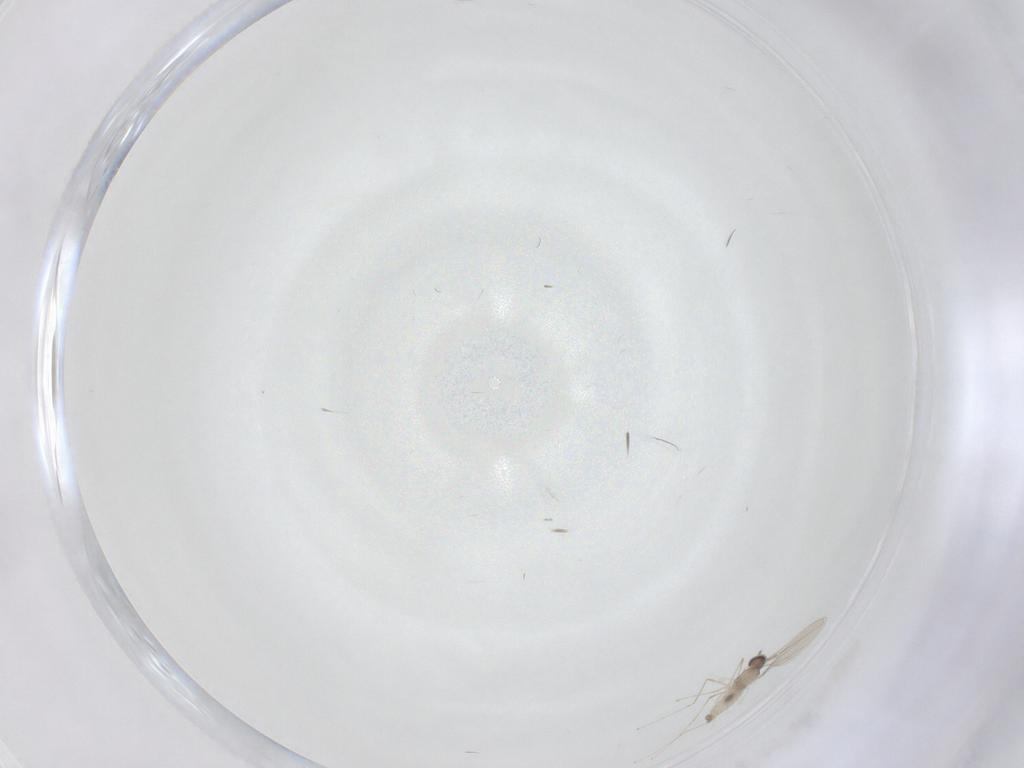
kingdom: Animalia
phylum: Arthropoda
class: Insecta
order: Diptera
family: Cecidomyiidae
